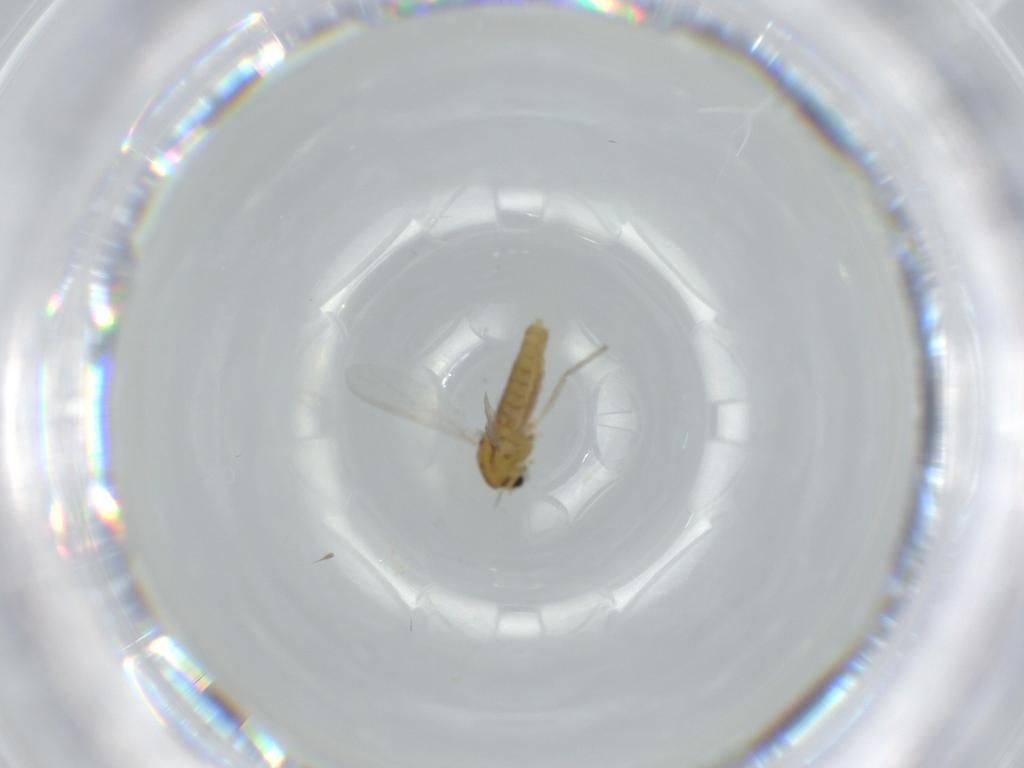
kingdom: Animalia
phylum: Arthropoda
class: Insecta
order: Diptera
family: Chironomidae
